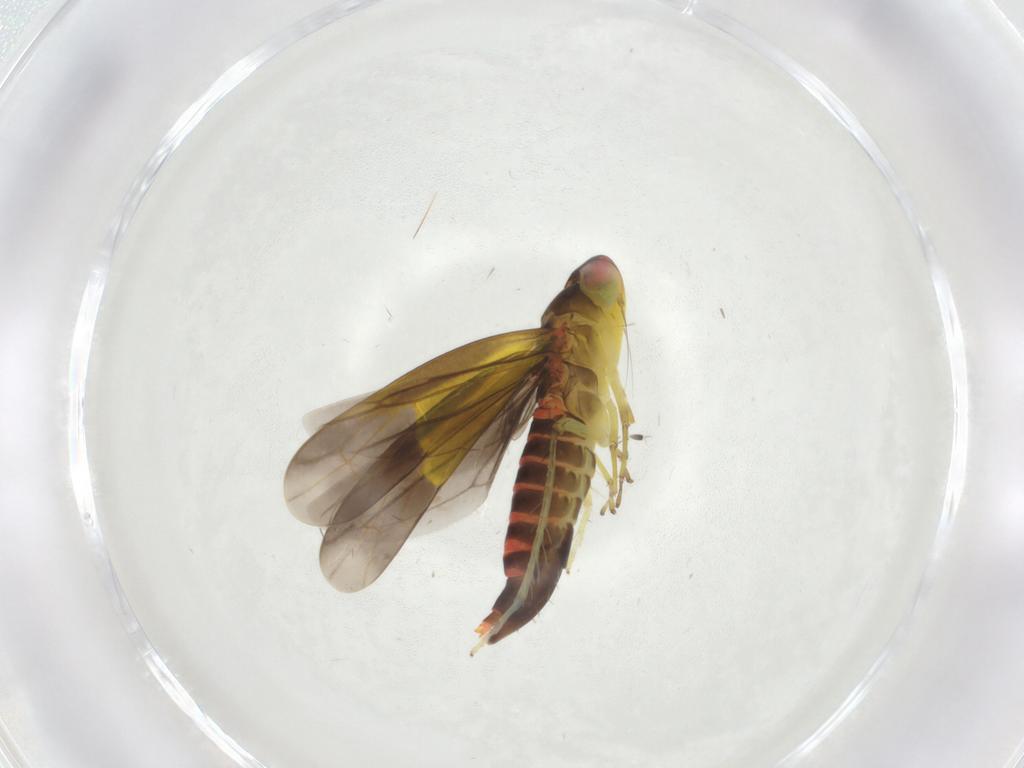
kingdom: Animalia
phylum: Arthropoda
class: Insecta
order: Hemiptera
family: Cicadellidae
